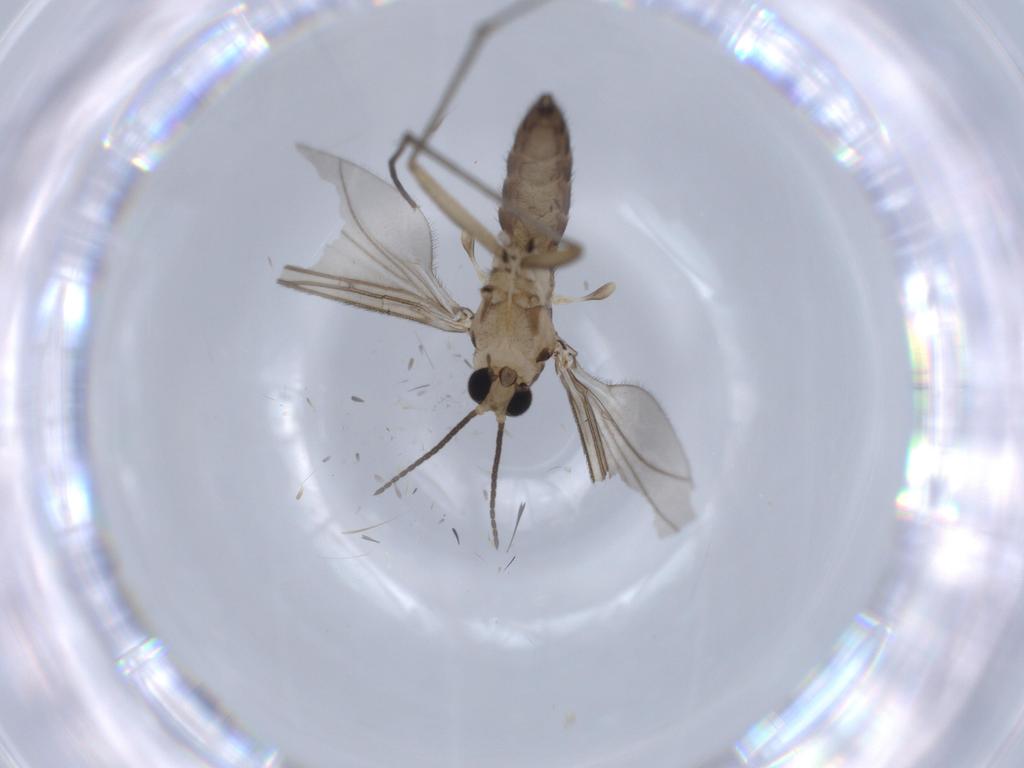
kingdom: Animalia
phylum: Arthropoda
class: Insecta
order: Diptera
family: Sciaridae
